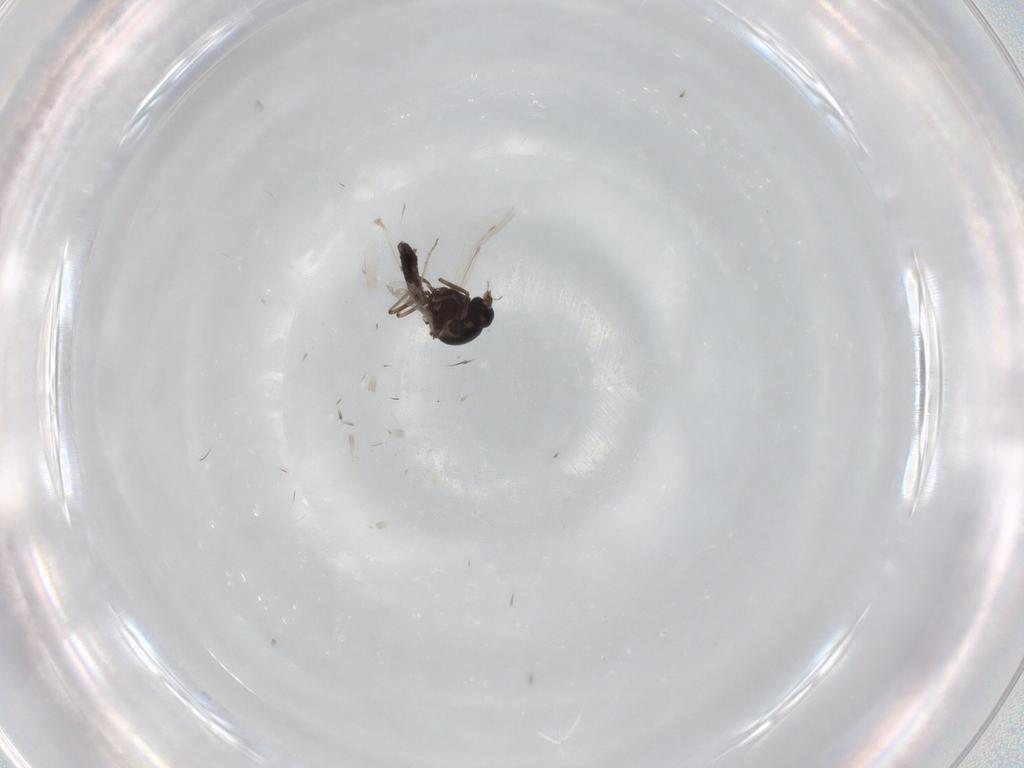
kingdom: Animalia
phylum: Arthropoda
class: Insecta
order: Diptera
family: Ceratopogonidae
